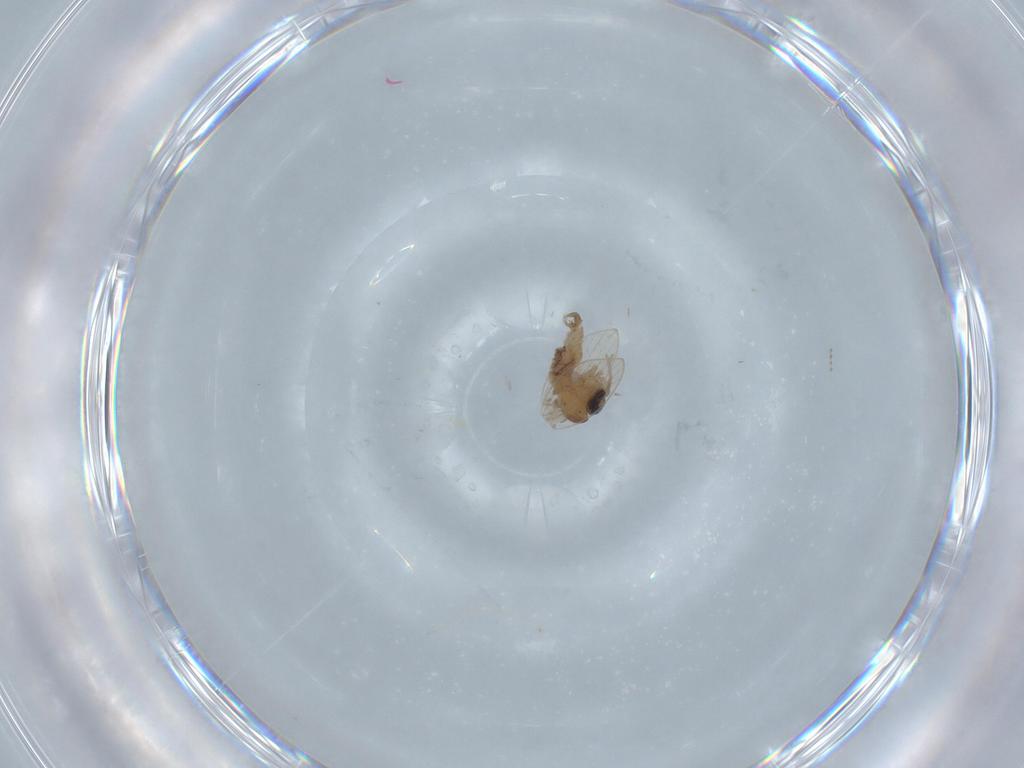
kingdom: Animalia
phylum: Arthropoda
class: Insecta
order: Diptera
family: Psychodidae
